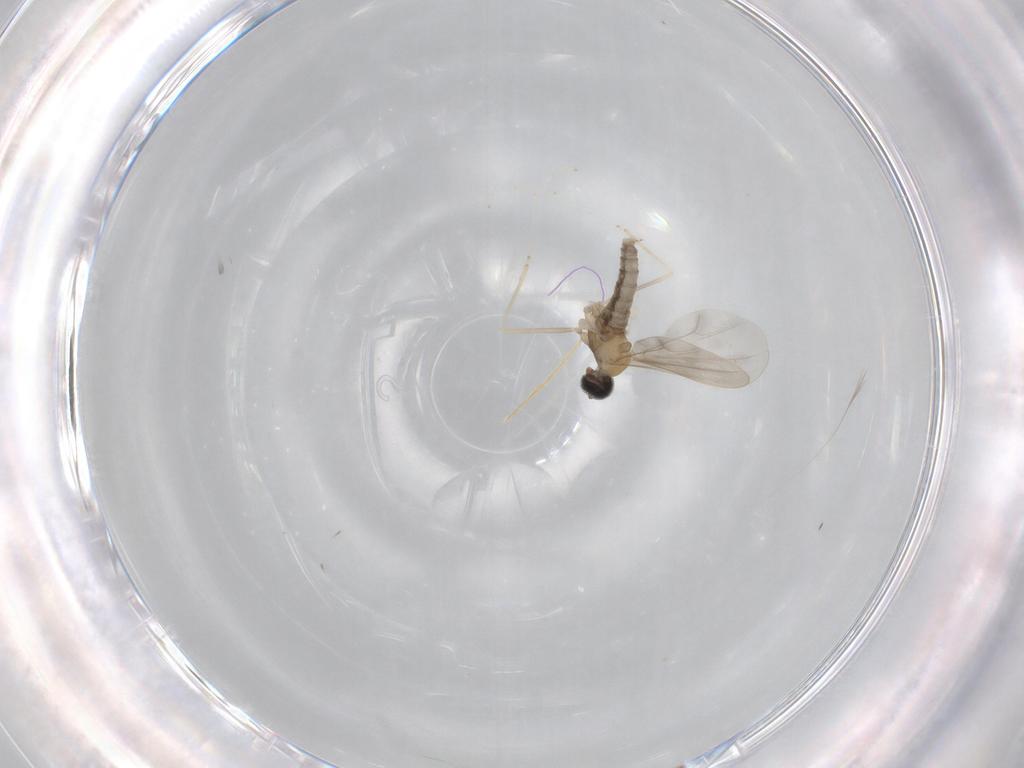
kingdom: Animalia
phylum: Arthropoda
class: Insecta
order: Diptera
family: Cecidomyiidae
